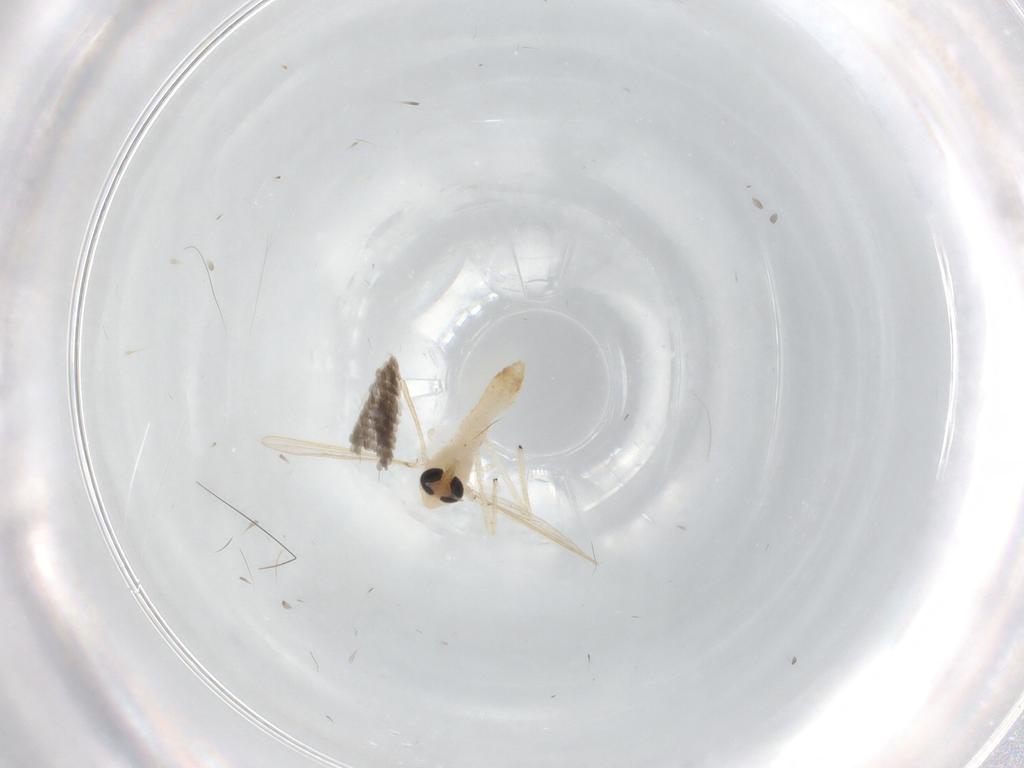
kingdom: Animalia
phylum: Arthropoda
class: Insecta
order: Diptera
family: Chironomidae
